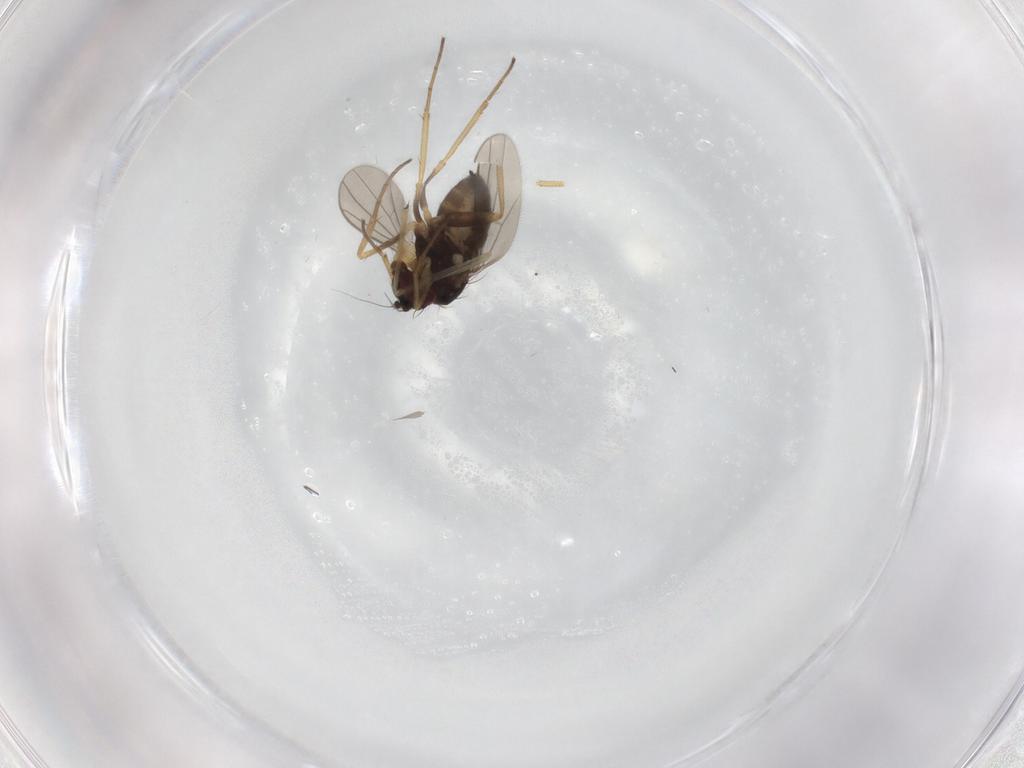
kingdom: Animalia
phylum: Arthropoda
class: Insecta
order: Diptera
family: Dolichopodidae
